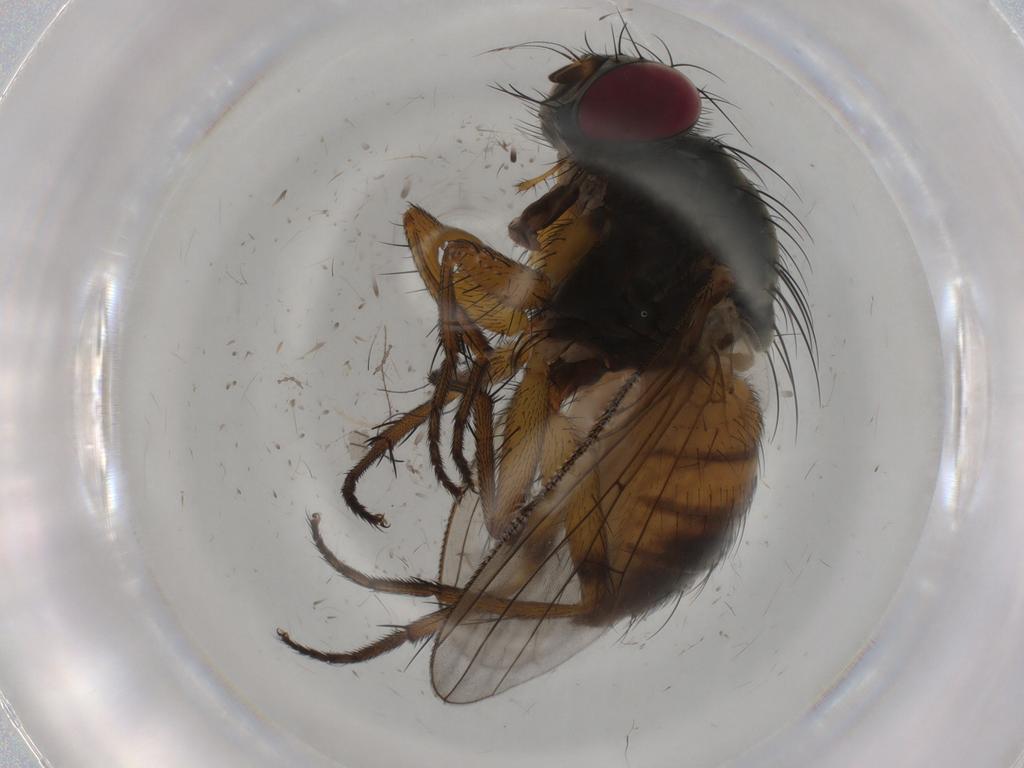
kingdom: Animalia
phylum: Arthropoda
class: Insecta
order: Diptera
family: Muscidae
